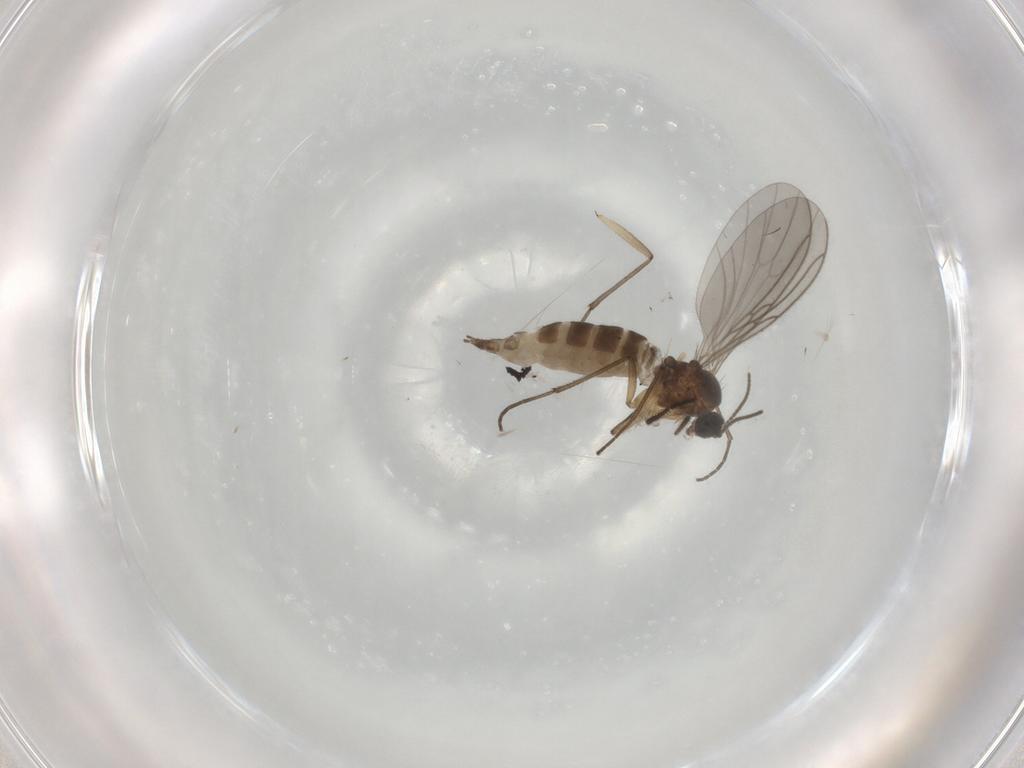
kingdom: Animalia
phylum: Arthropoda
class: Insecta
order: Diptera
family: Sciaridae
